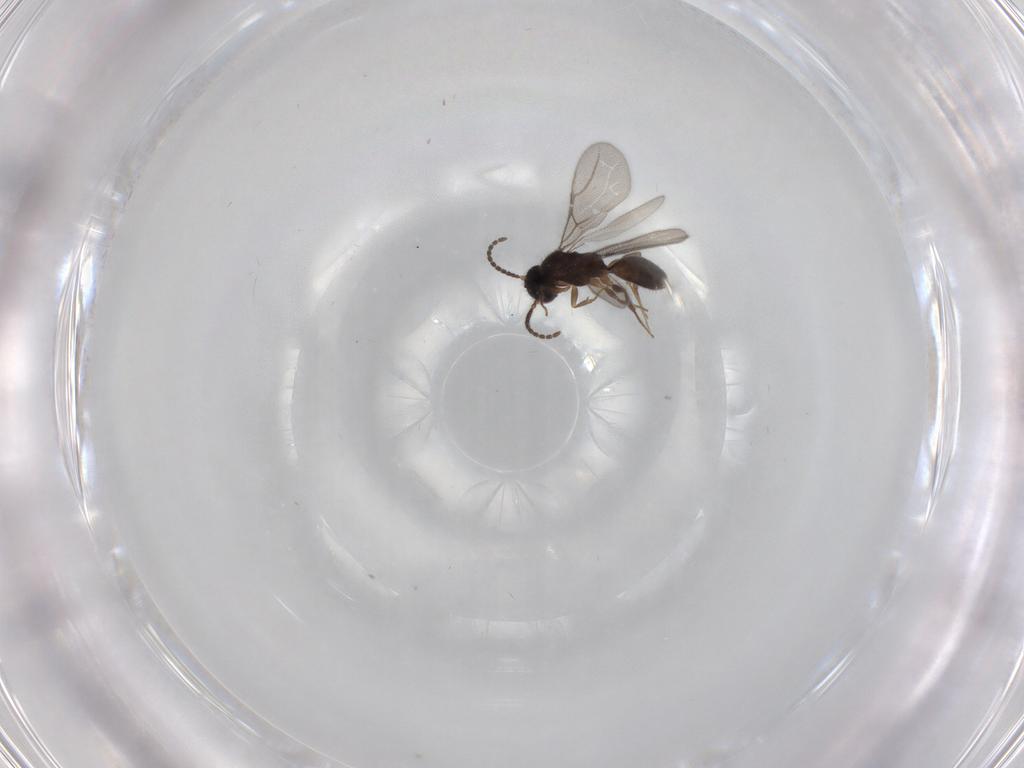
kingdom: Animalia
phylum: Arthropoda
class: Insecta
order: Hymenoptera
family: Bethylidae
